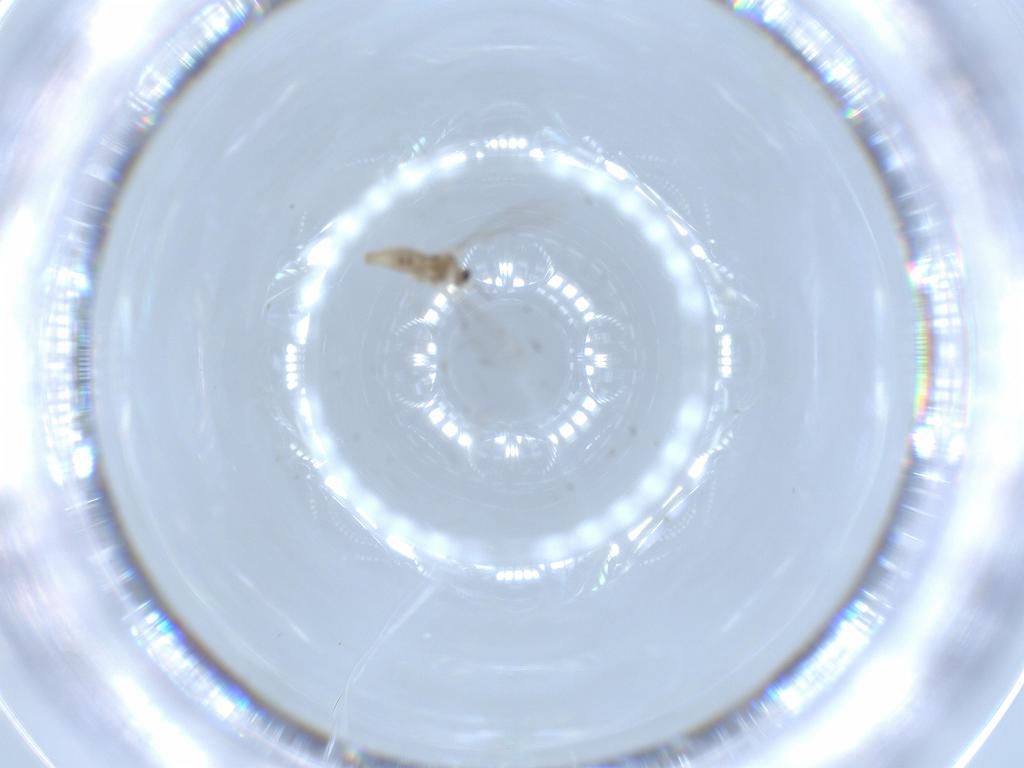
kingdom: Animalia
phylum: Arthropoda
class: Insecta
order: Diptera
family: Cecidomyiidae
